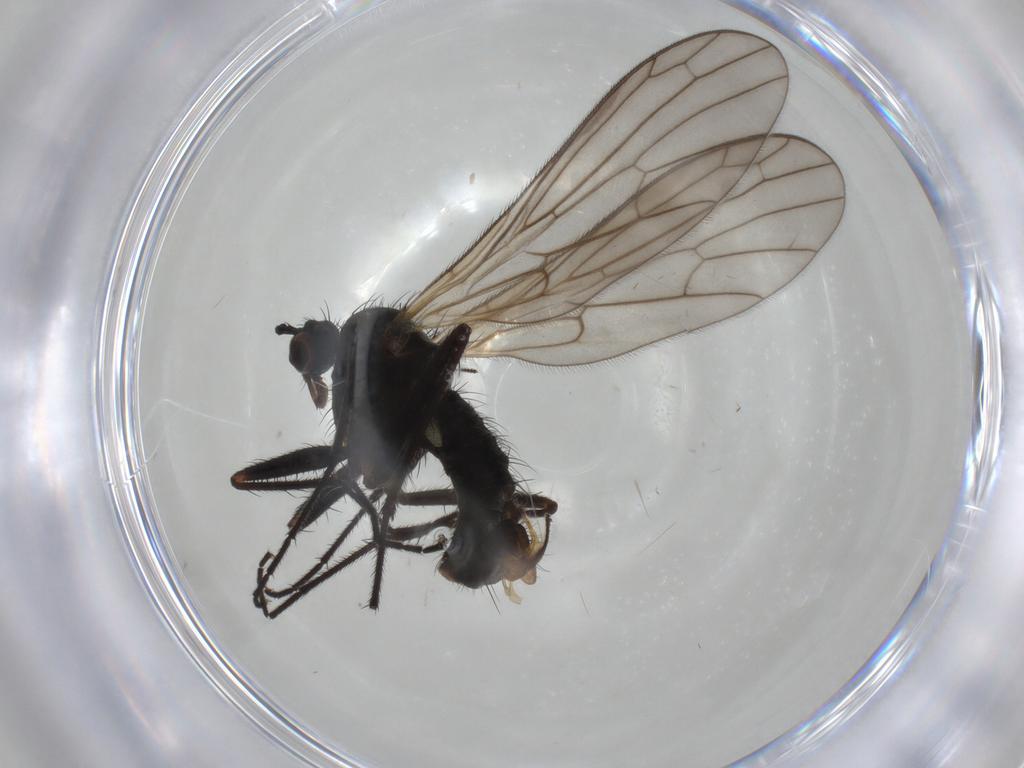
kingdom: Animalia
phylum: Arthropoda
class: Insecta
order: Diptera
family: Empididae
